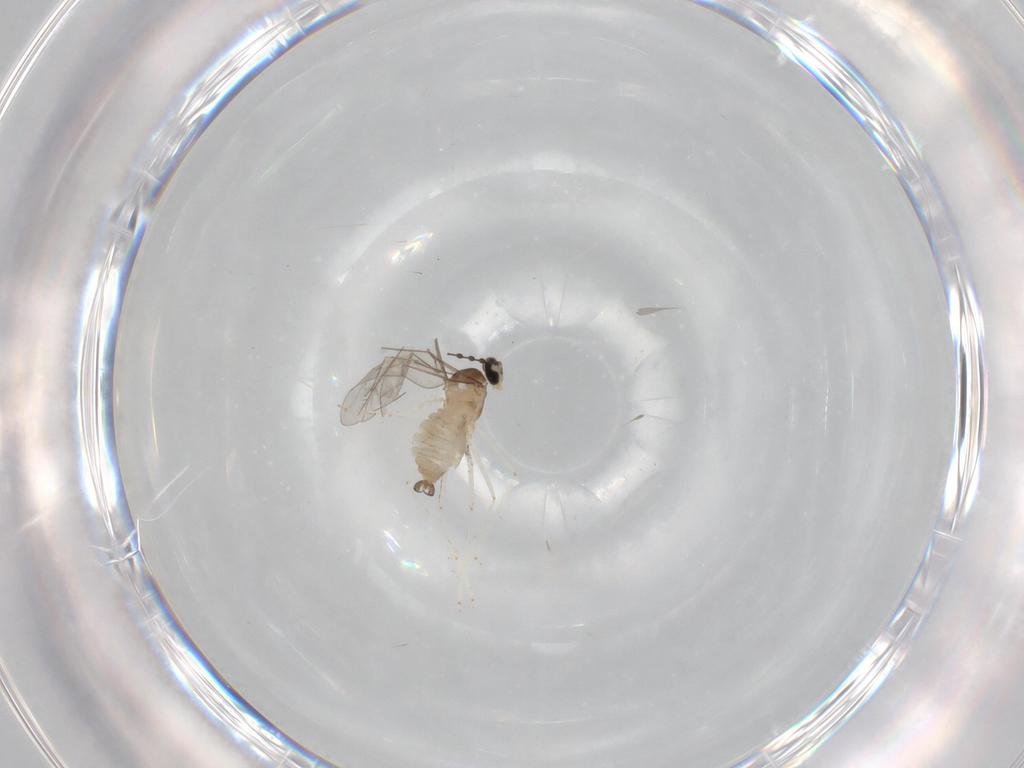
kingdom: Animalia
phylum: Arthropoda
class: Insecta
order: Diptera
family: Cecidomyiidae
